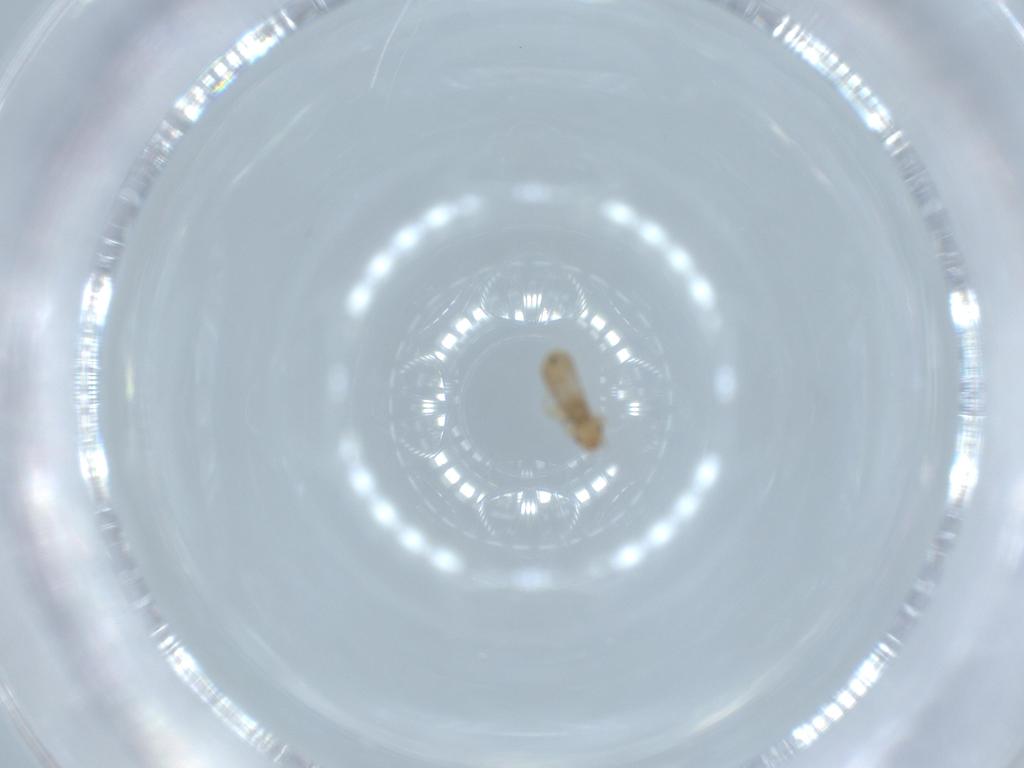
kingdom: Animalia
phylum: Arthropoda
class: Insecta
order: Psocodea
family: Liposcelididae
